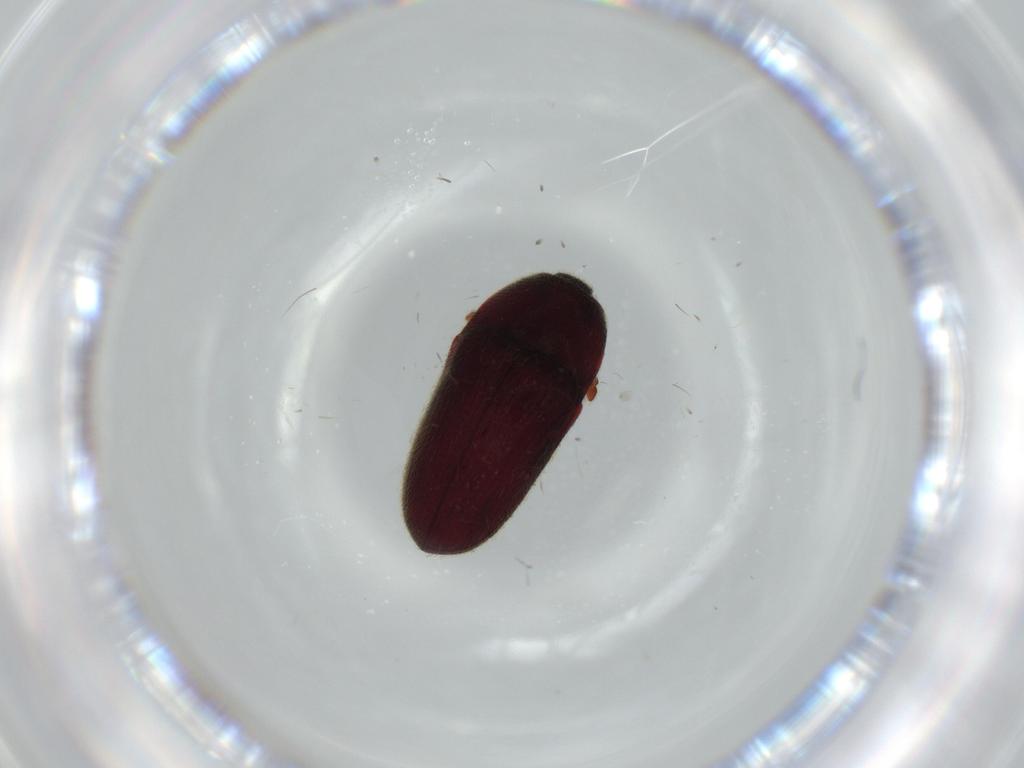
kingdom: Animalia
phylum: Arthropoda
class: Insecta
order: Coleoptera
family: Throscidae
